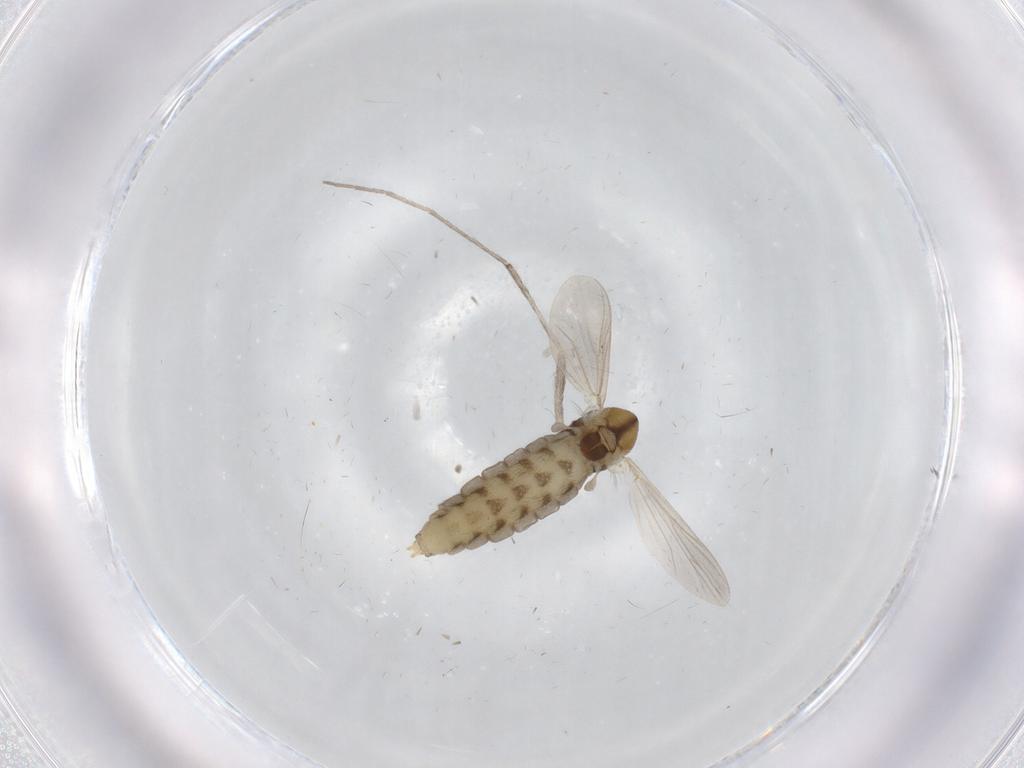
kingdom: Animalia
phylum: Arthropoda
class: Insecta
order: Diptera
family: Chironomidae
